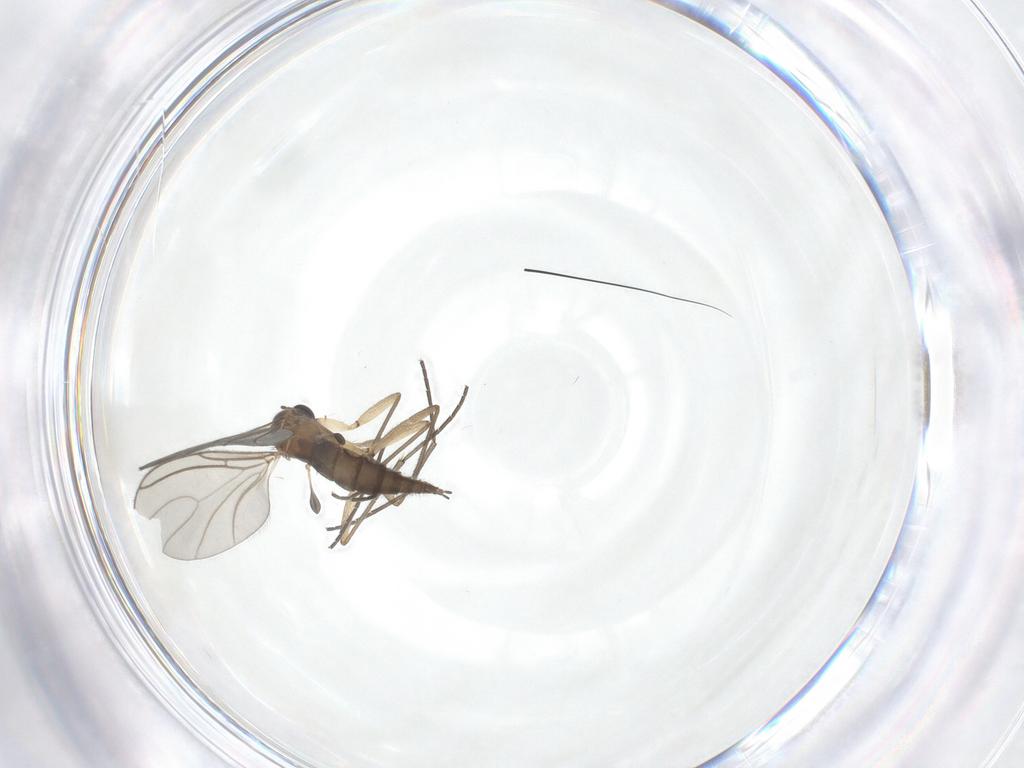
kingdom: Animalia
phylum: Arthropoda
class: Insecta
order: Diptera
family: Sciaridae
